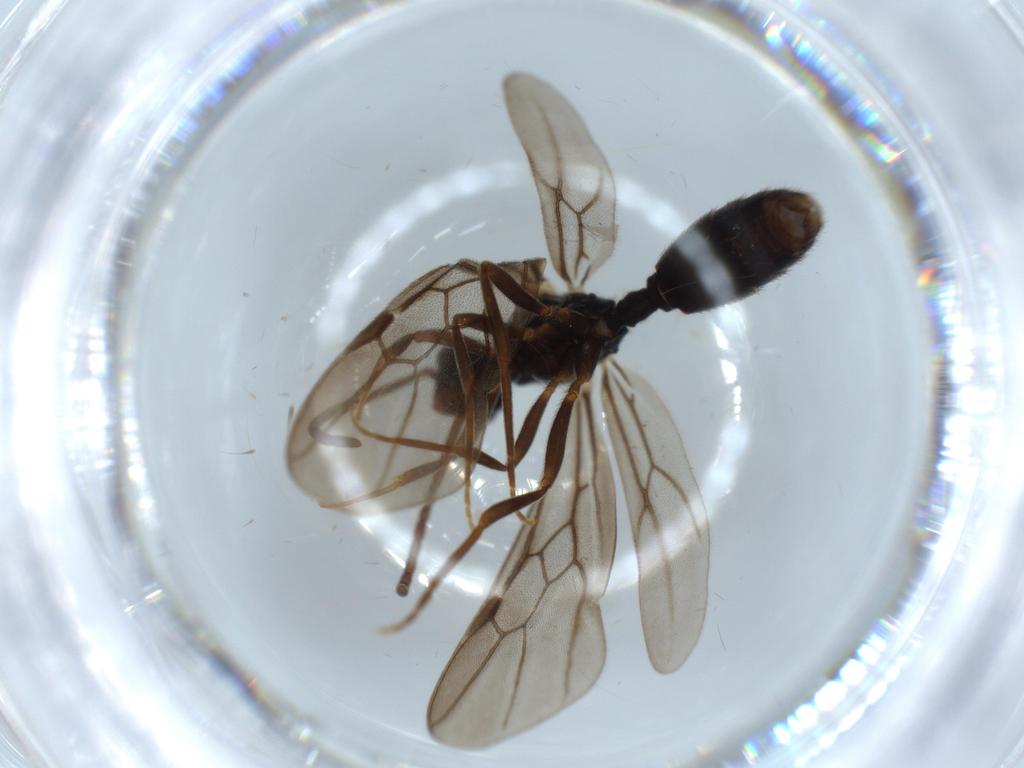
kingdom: Animalia
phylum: Arthropoda
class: Insecta
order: Hymenoptera
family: Formicidae
